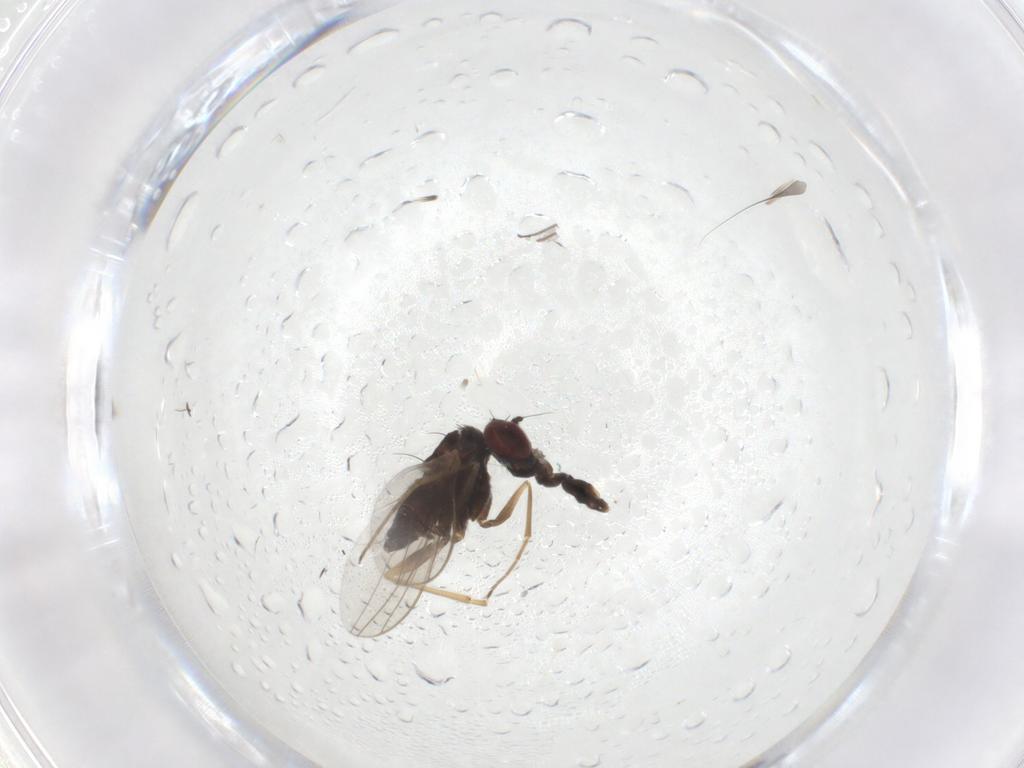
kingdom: Animalia
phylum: Arthropoda
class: Insecta
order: Diptera
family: Dolichopodidae
